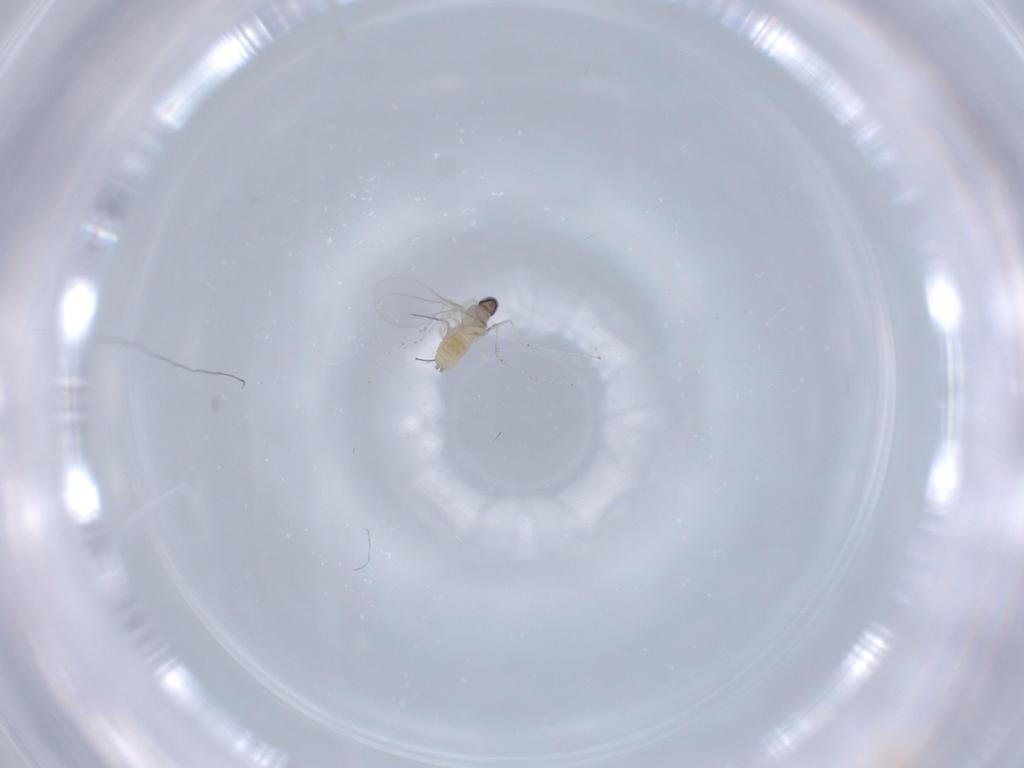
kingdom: Animalia
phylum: Arthropoda
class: Insecta
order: Diptera
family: Cecidomyiidae
